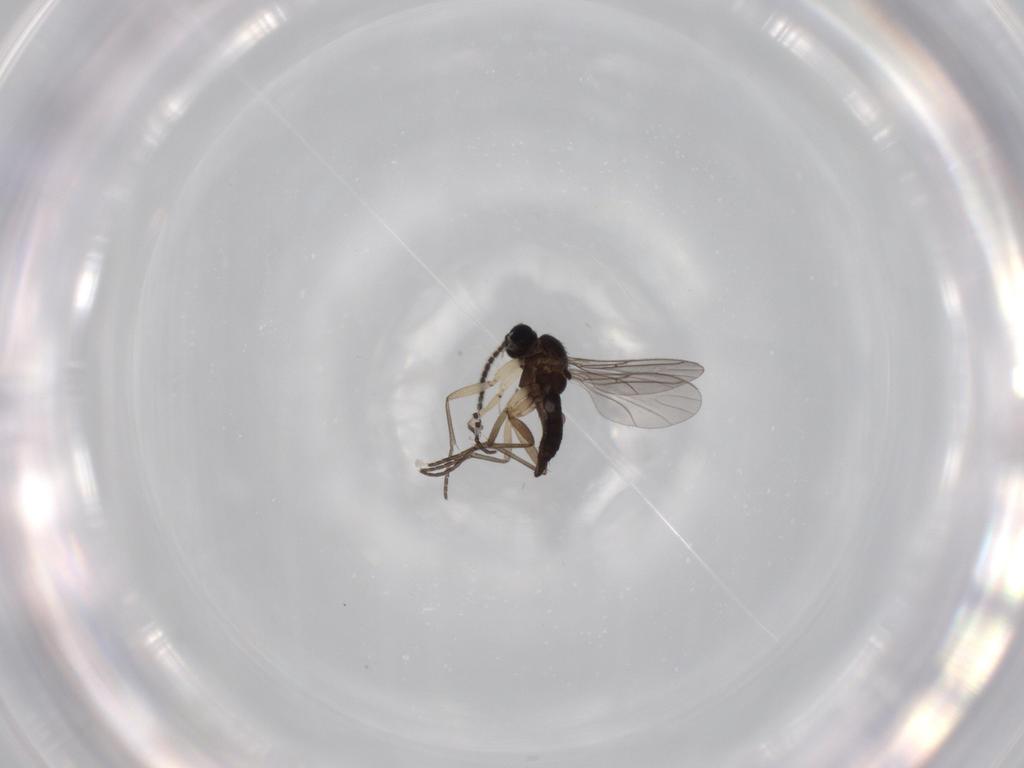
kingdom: Animalia
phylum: Arthropoda
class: Insecta
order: Diptera
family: Sciaridae
